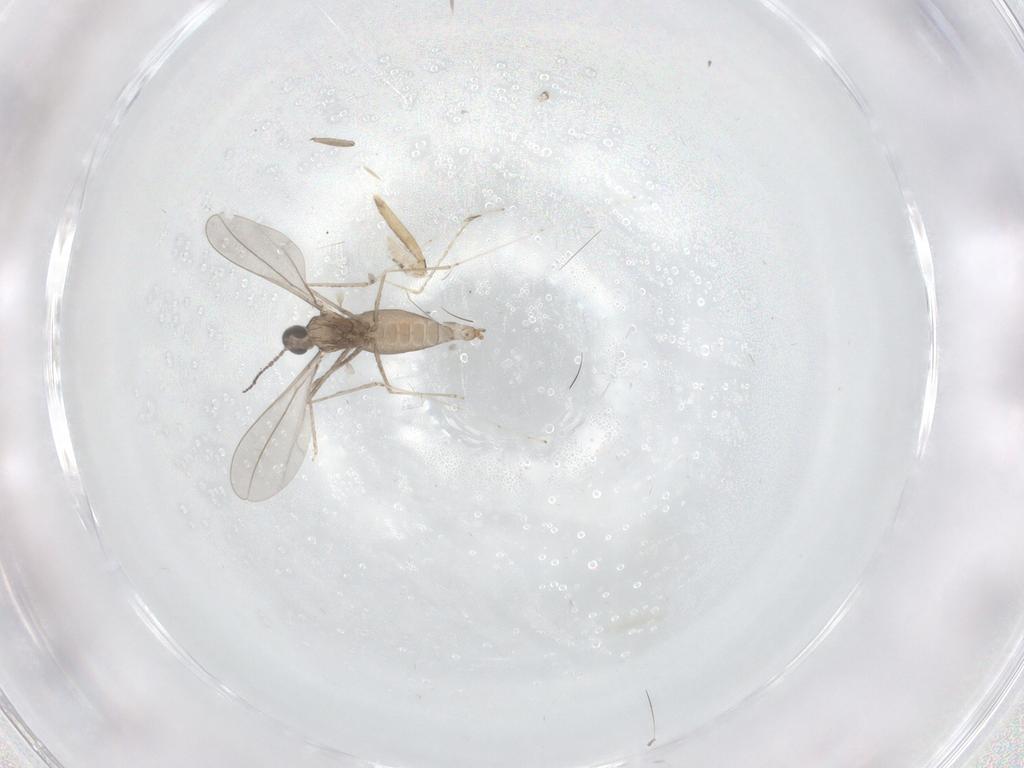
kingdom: Animalia
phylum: Arthropoda
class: Insecta
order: Diptera
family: Cecidomyiidae
